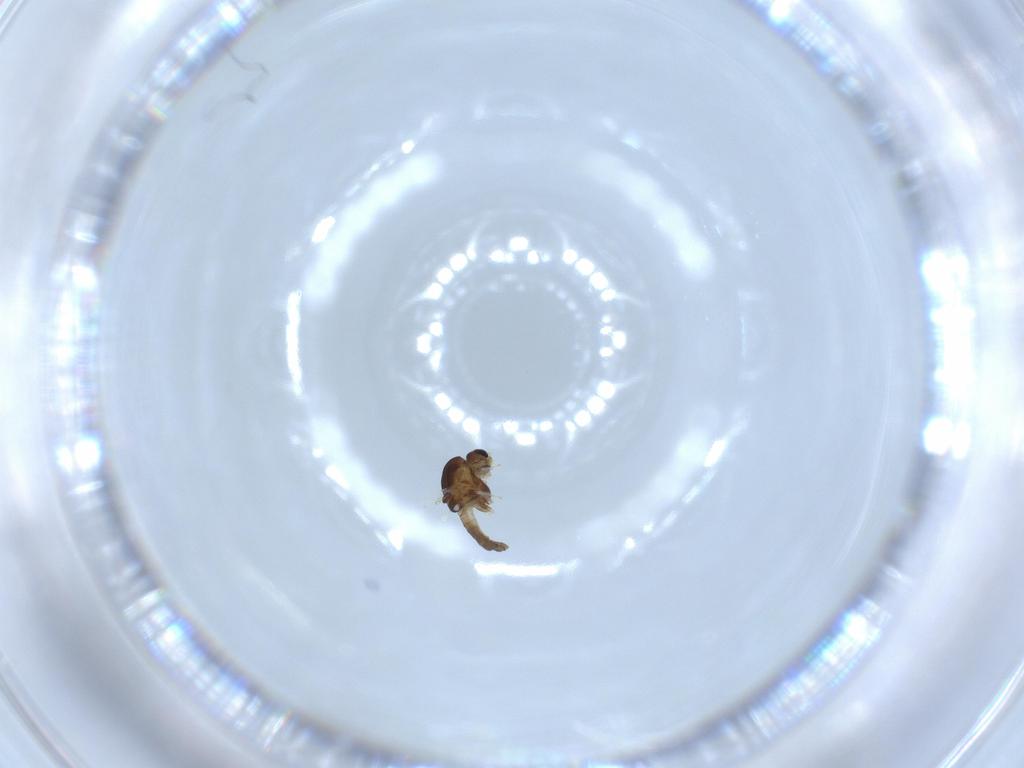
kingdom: Animalia
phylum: Arthropoda
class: Insecta
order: Diptera
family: Chironomidae
